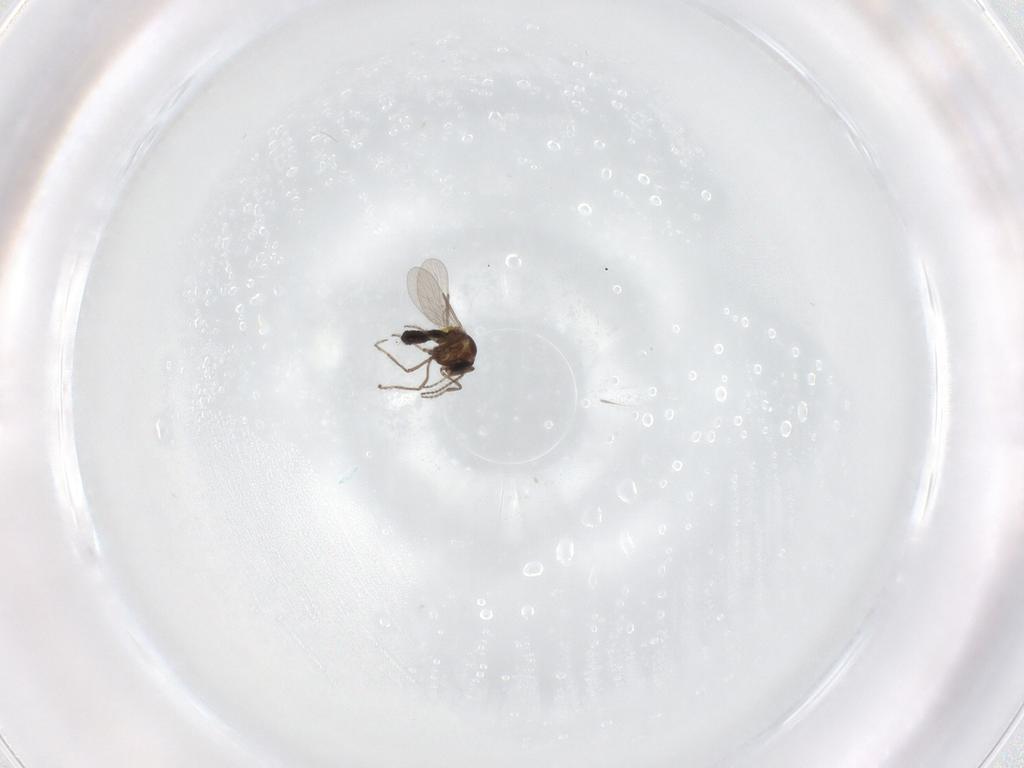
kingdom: Animalia
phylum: Arthropoda
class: Insecta
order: Diptera
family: Ceratopogonidae
